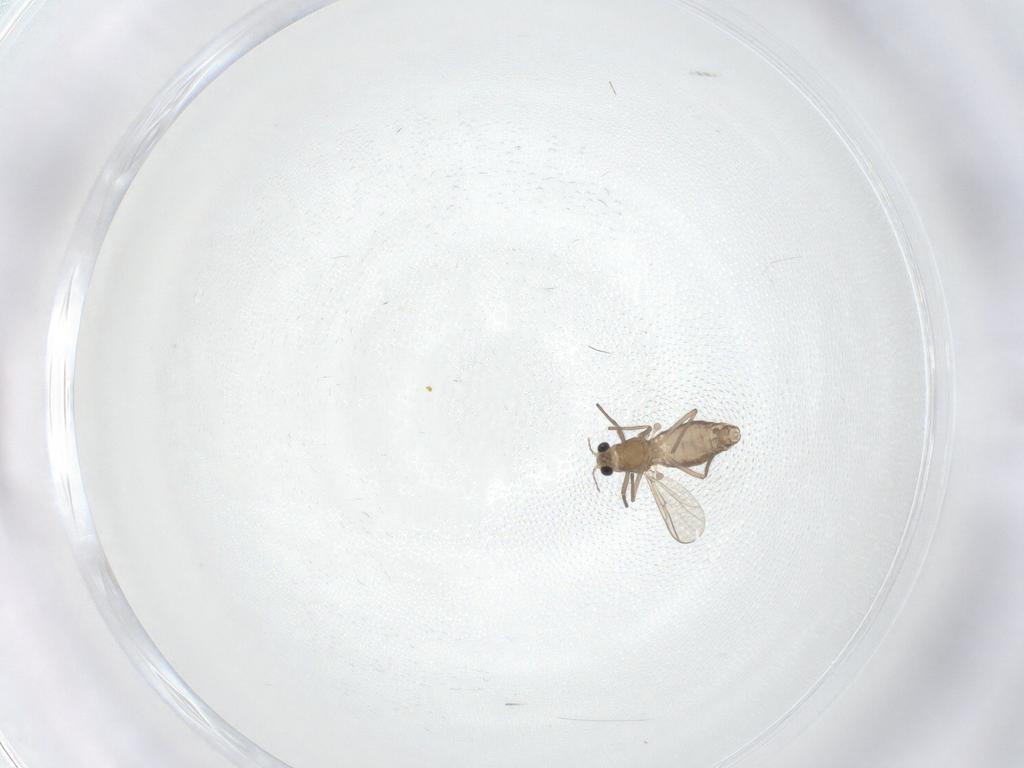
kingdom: Animalia
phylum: Arthropoda
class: Insecta
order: Diptera
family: Chironomidae
